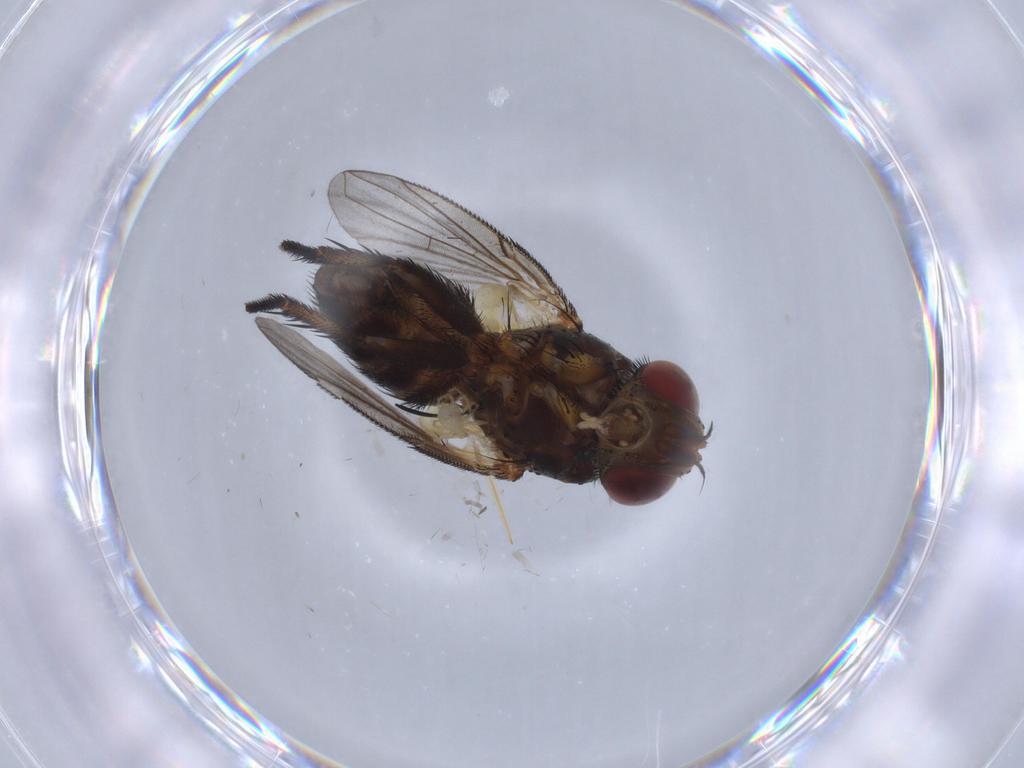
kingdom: Animalia
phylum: Arthropoda
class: Insecta
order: Diptera
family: Tachinidae
